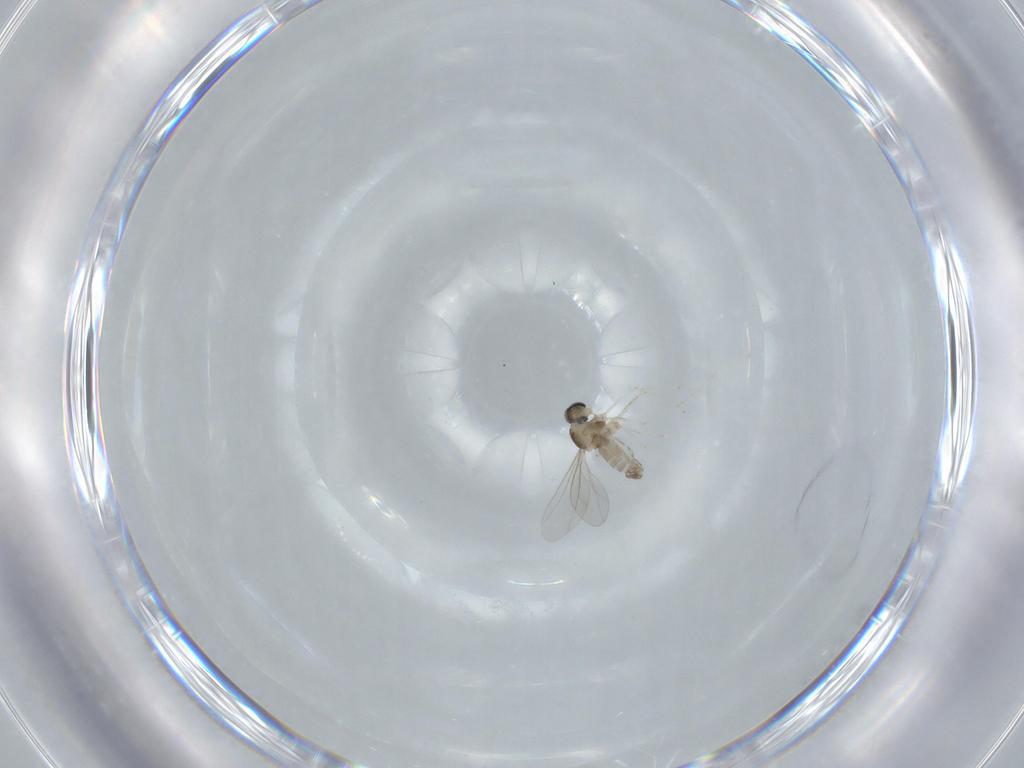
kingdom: Animalia
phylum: Arthropoda
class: Insecta
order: Diptera
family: Cecidomyiidae
